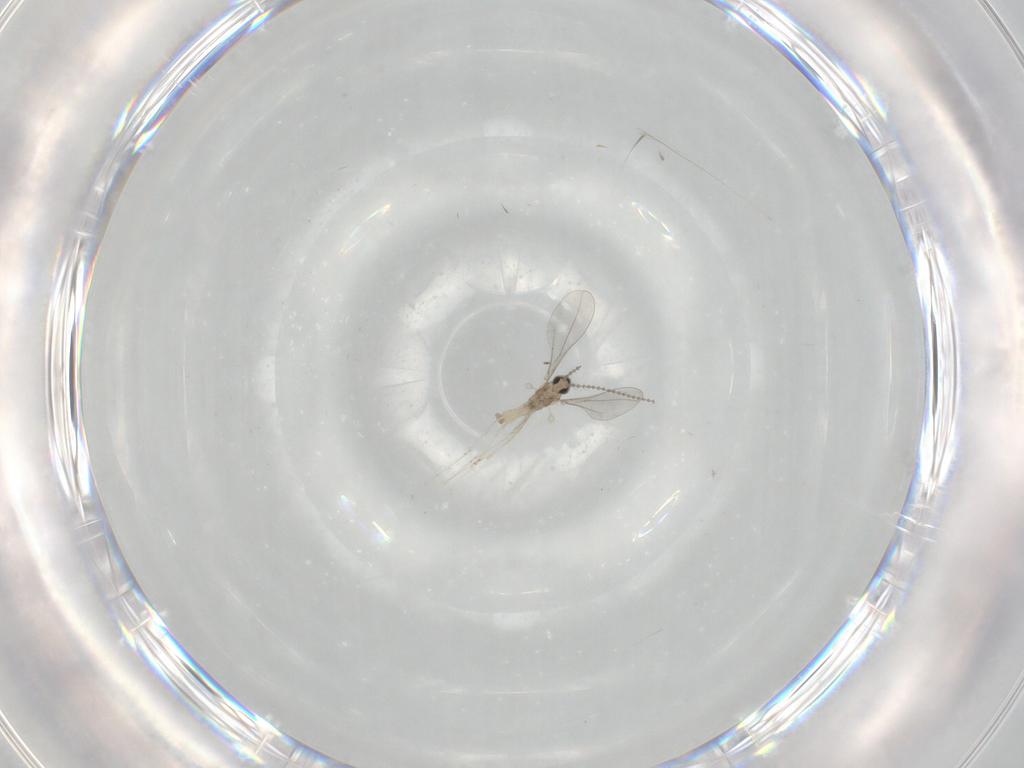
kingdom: Animalia
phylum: Arthropoda
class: Insecta
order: Diptera
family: Cecidomyiidae
